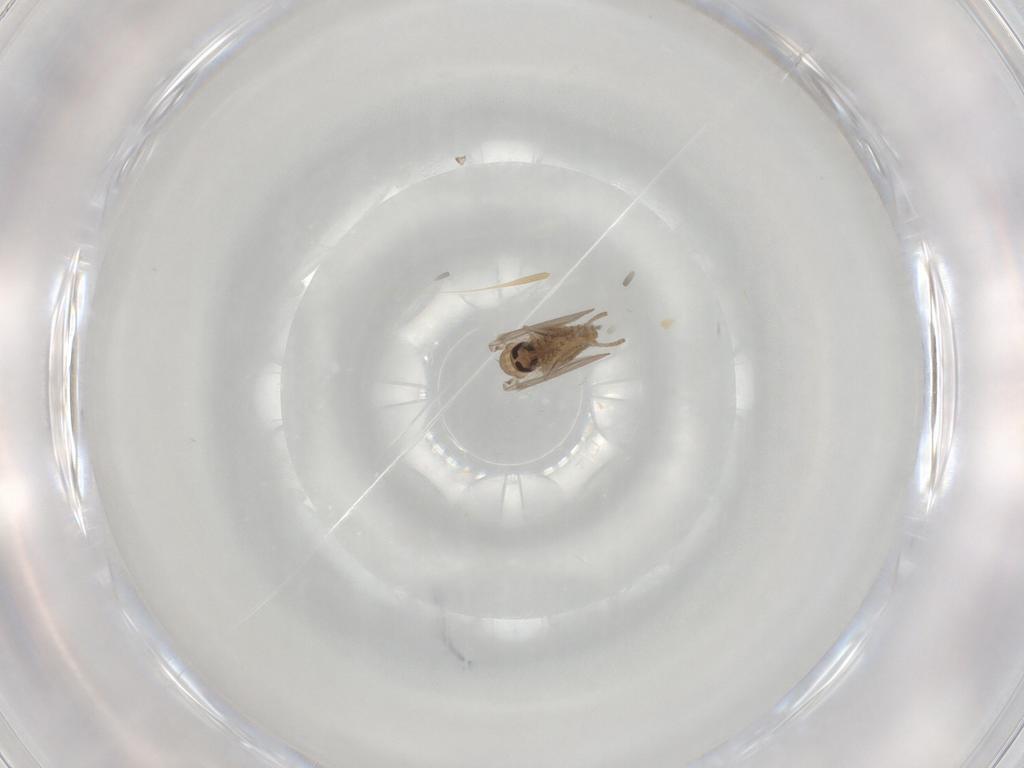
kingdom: Animalia
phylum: Arthropoda
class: Insecta
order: Diptera
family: Psychodidae
